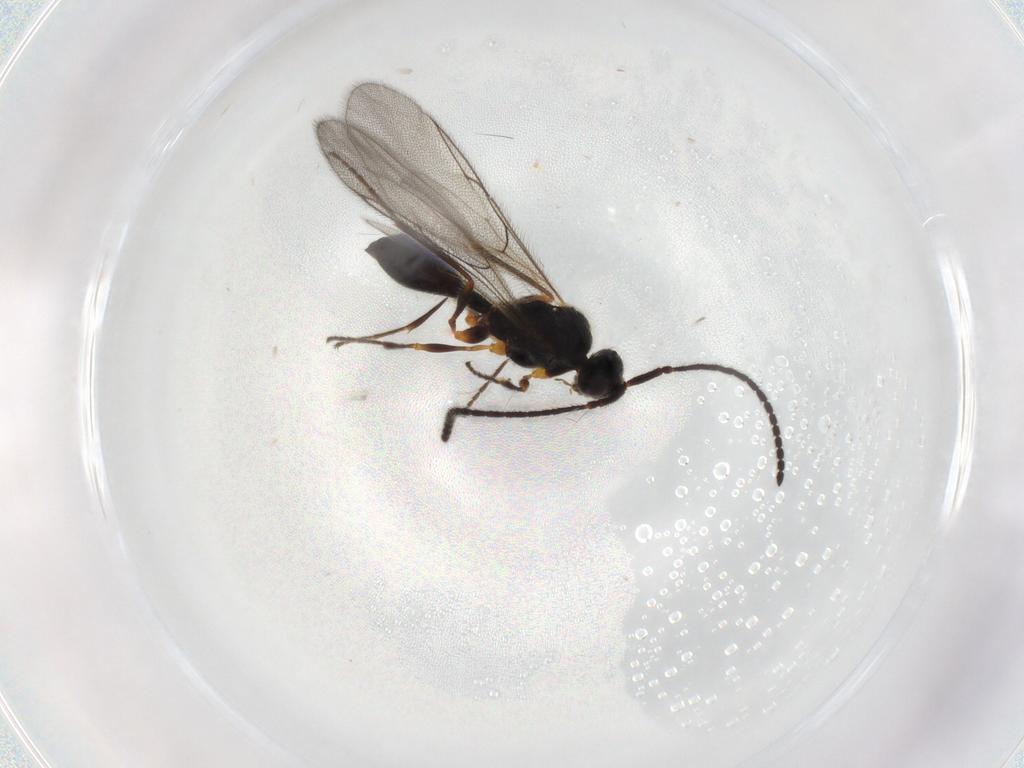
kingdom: Animalia
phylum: Arthropoda
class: Insecta
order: Hymenoptera
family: Diapriidae
